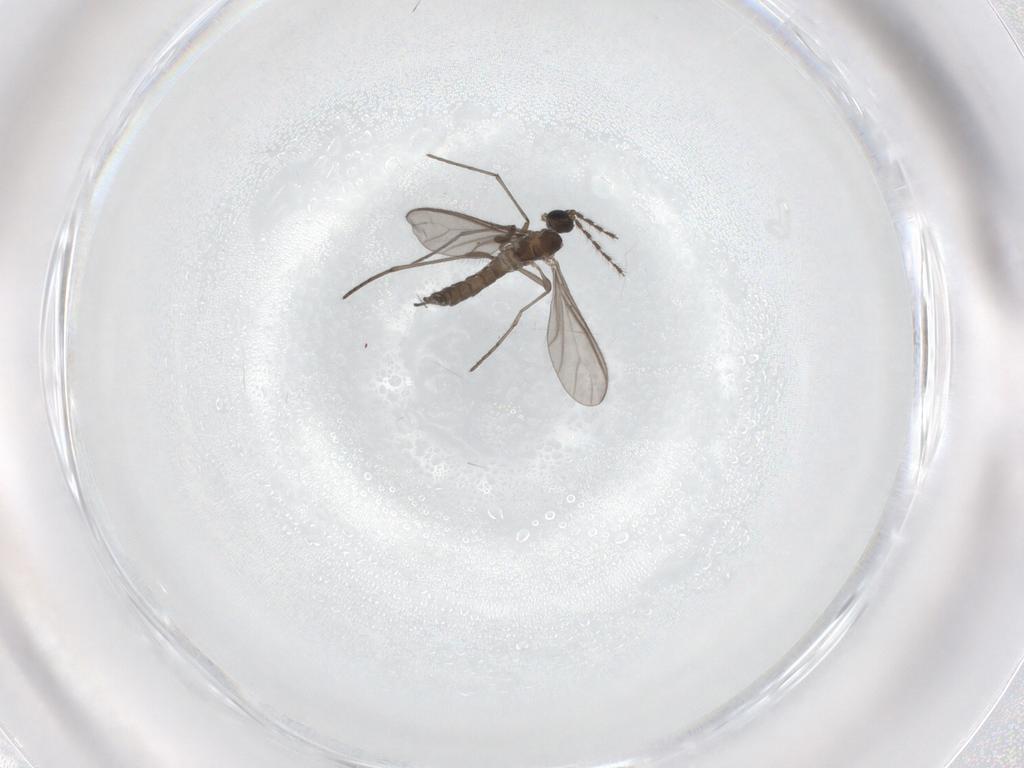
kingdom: Animalia
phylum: Arthropoda
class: Insecta
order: Diptera
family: Sciaridae
